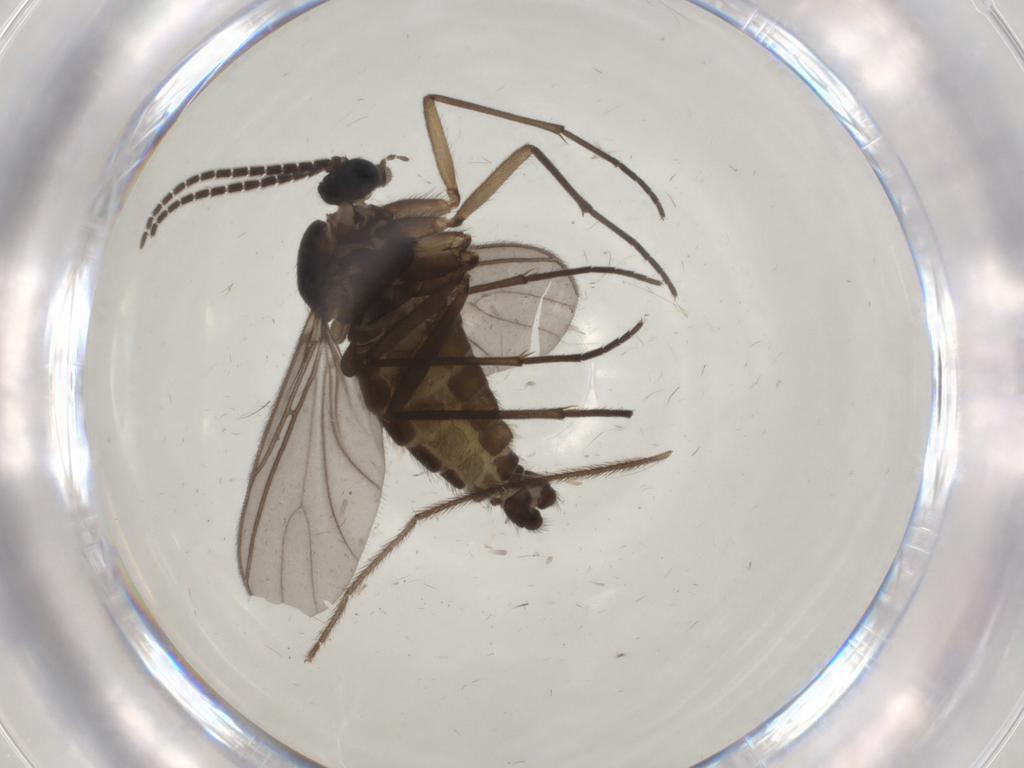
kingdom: Animalia
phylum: Arthropoda
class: Insecta
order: Diptera
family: Sciaridae
